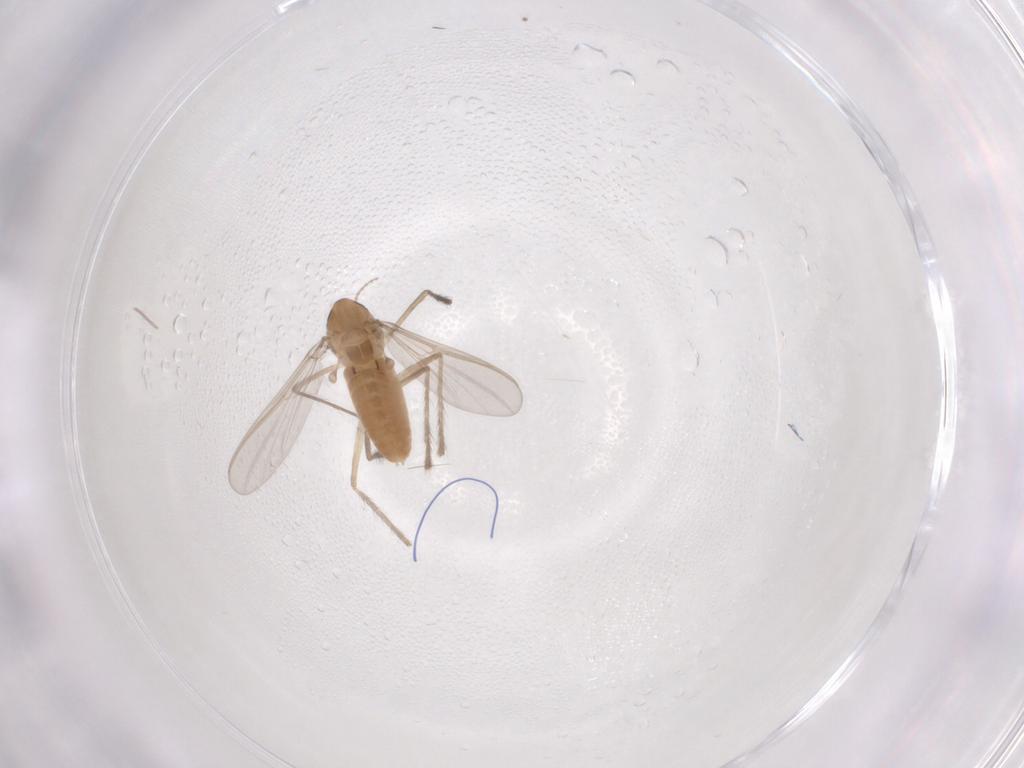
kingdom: Animalia
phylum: Arthropoda
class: Insecta
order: Diptera
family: Chironomidae
